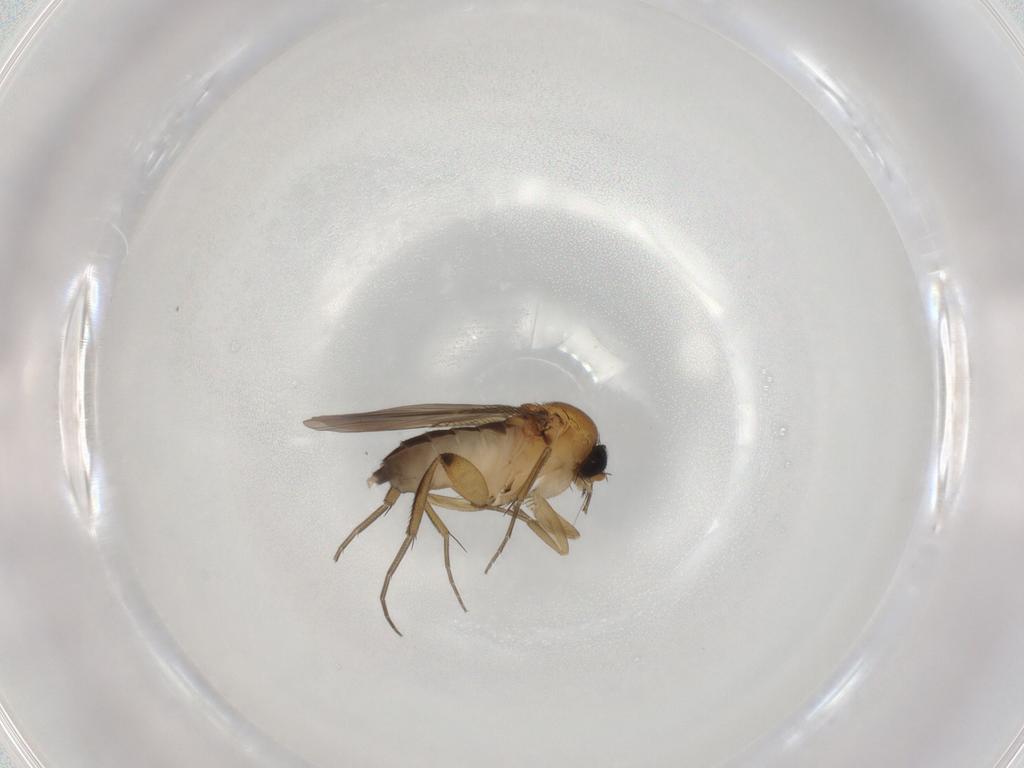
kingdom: Animalia
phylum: Arthropoda
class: Insecta
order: Diptera
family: Phoridae
